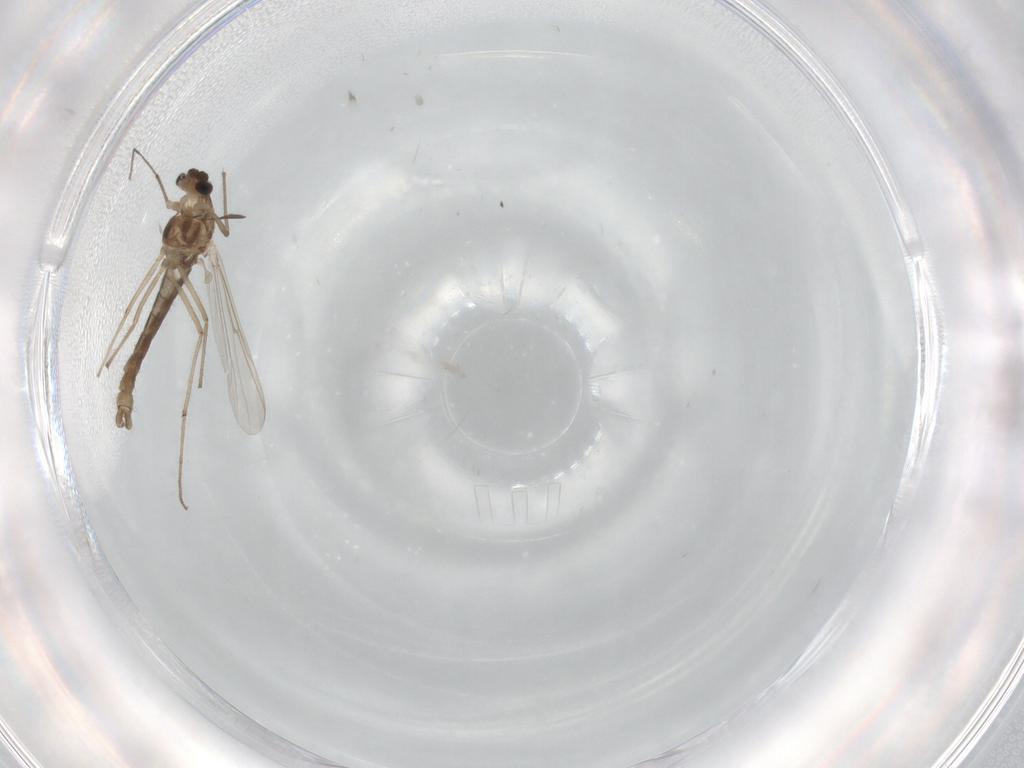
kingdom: Animalia
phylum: Arthropoda
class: Insecta
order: Diptera
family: Chironomidae
